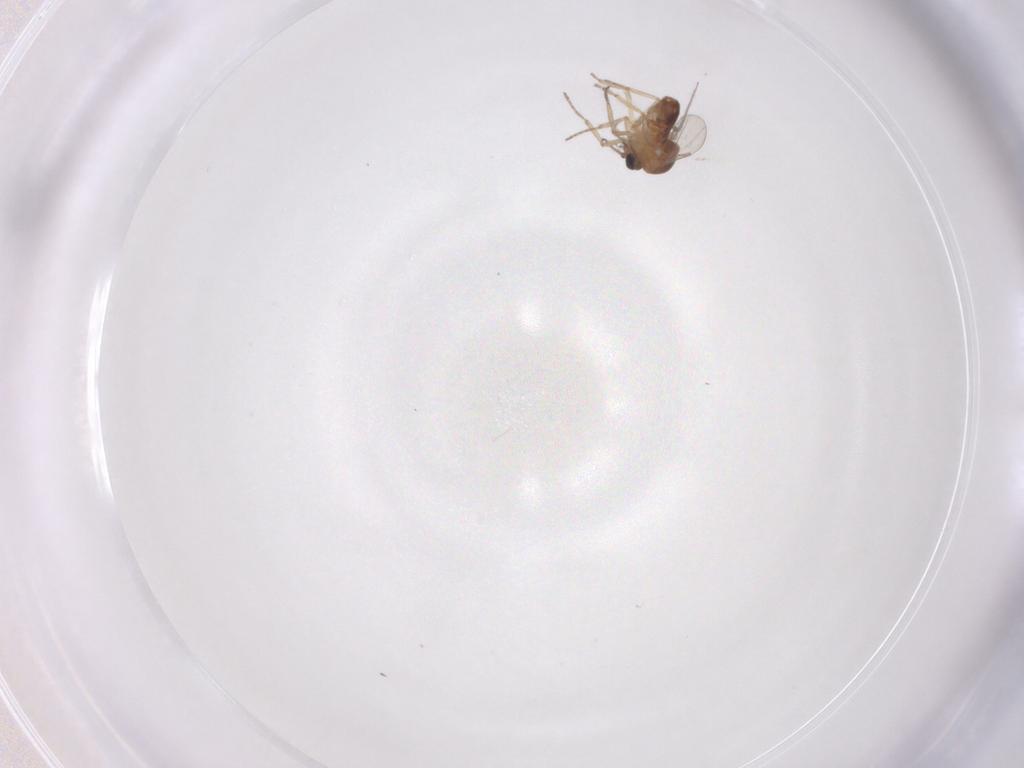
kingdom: Animalia
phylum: Arthropoda
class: Insecta
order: Diptera
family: Ceratopogonidae
